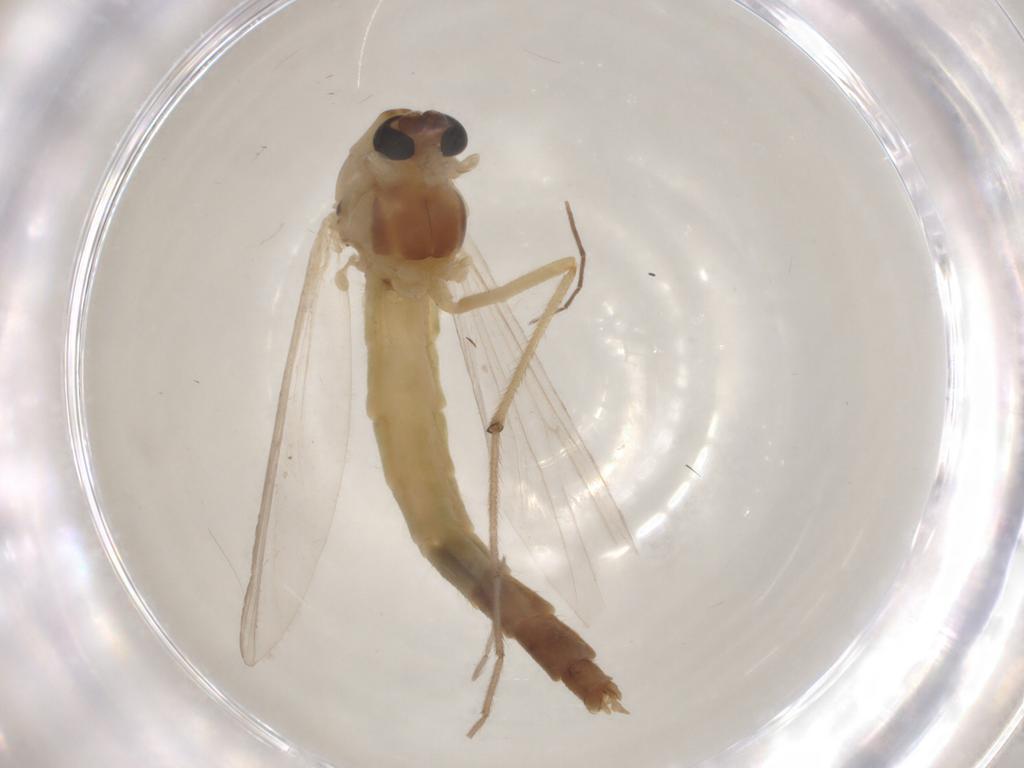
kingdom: Animalia
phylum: Arthropoda
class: Insecta
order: Diptera
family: Chironomidae
